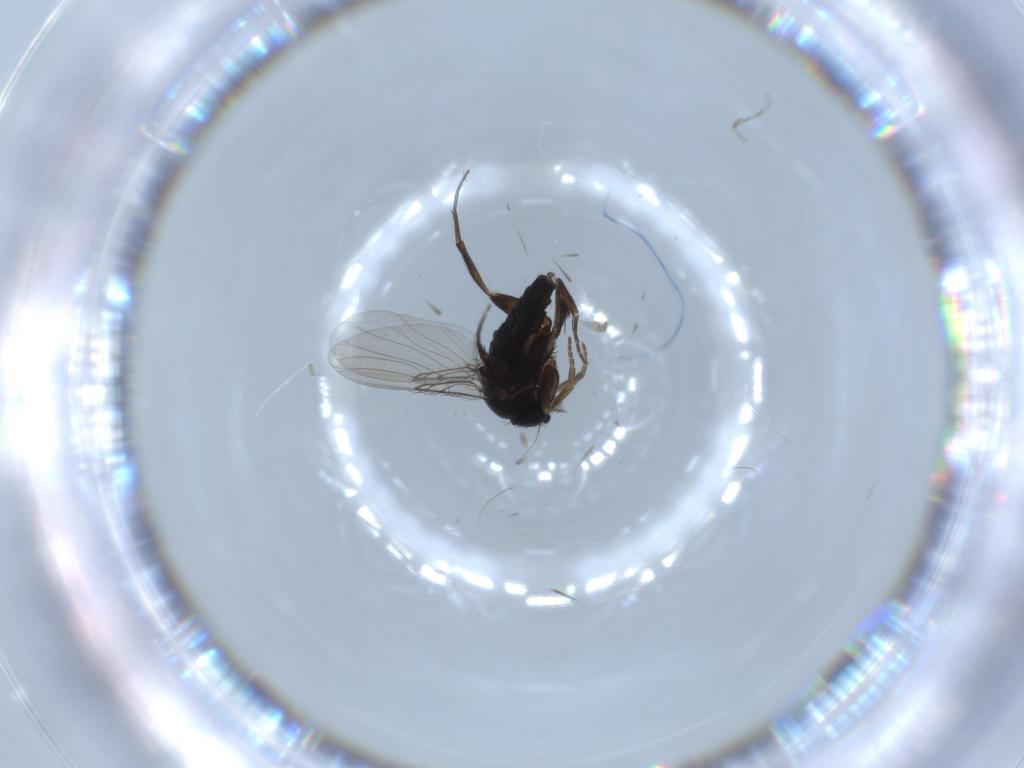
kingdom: Animalia
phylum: Arthropoda
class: Insecta
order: Diptera
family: Phoridae
